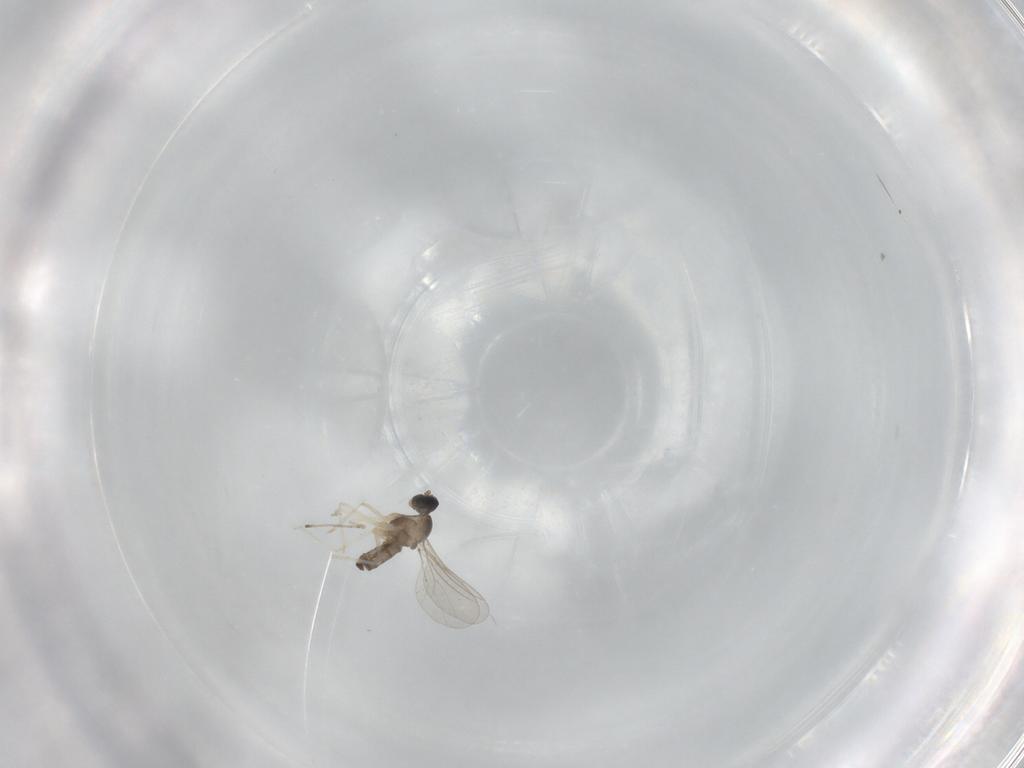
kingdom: Animalia
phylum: Arthropoda
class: Insecta
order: Diptera
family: Cecidomyiidae
